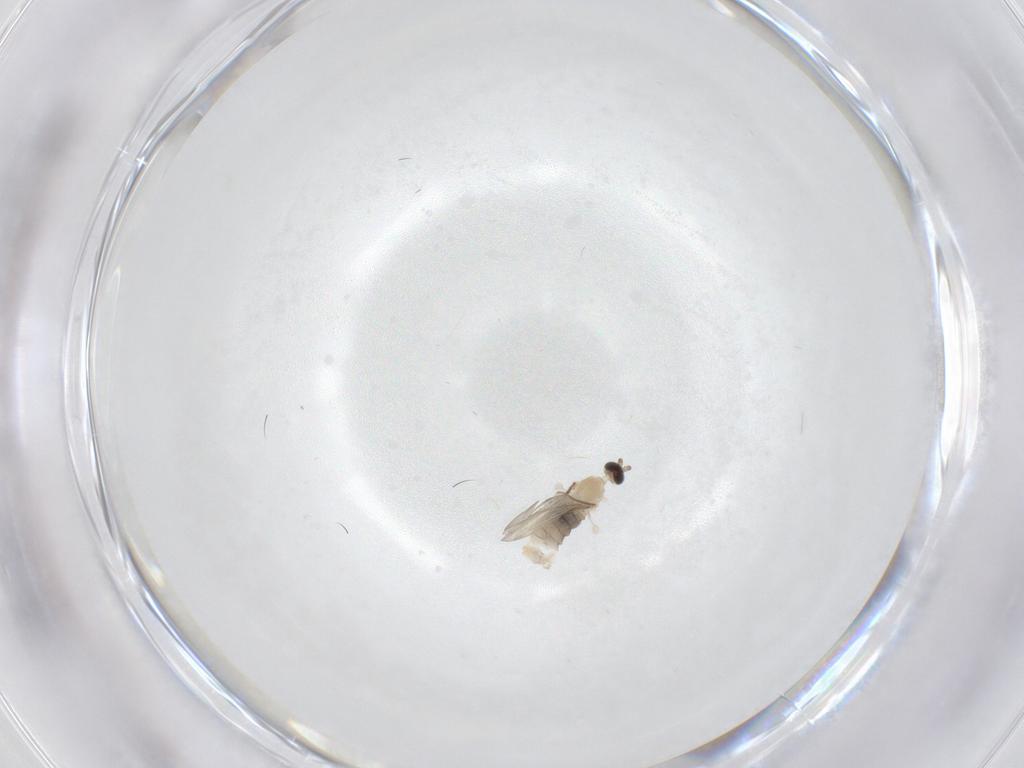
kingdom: Animalia
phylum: Arthropoda
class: Insecta
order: Diptera
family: Cecidomyiidae
